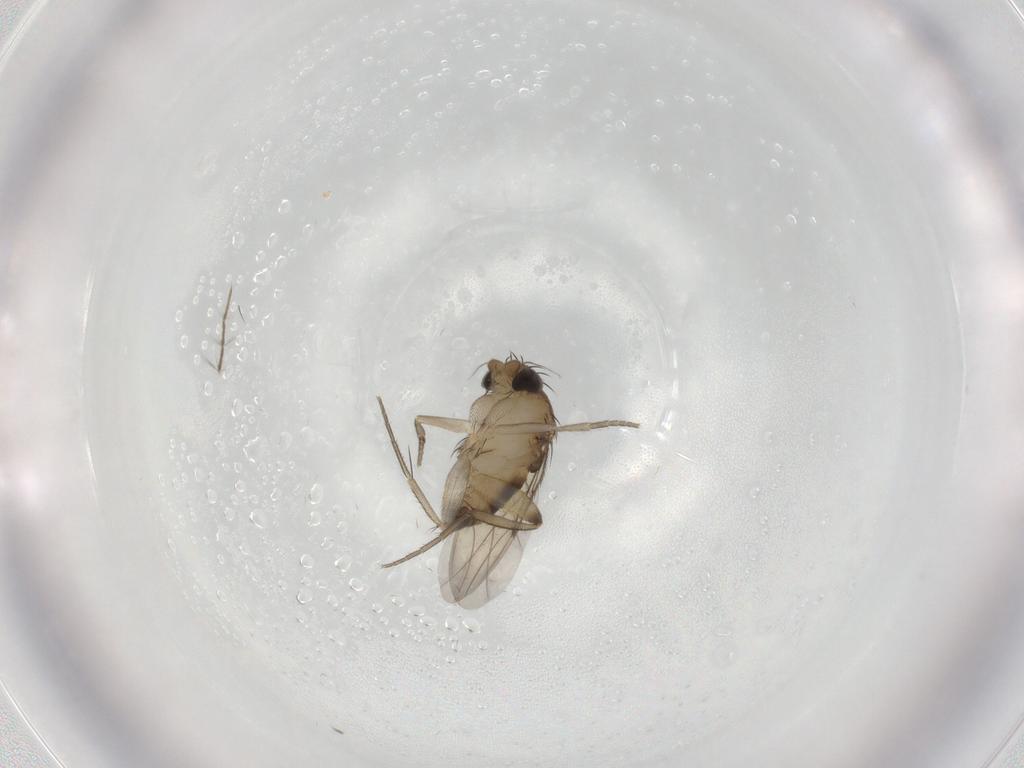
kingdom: Animalia
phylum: Arthropoda
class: Insecta
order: Diptera
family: Phoridae
